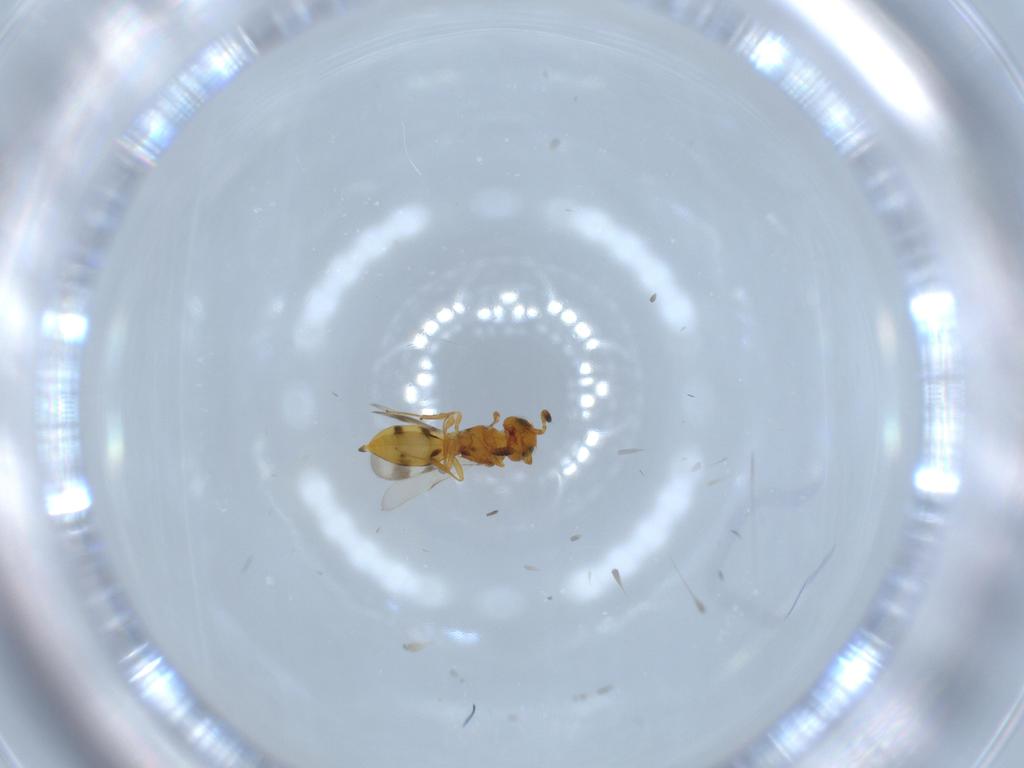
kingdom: Animalia
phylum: Arthropoda
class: Insecta
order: Hymenoptera
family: Scelionidae
